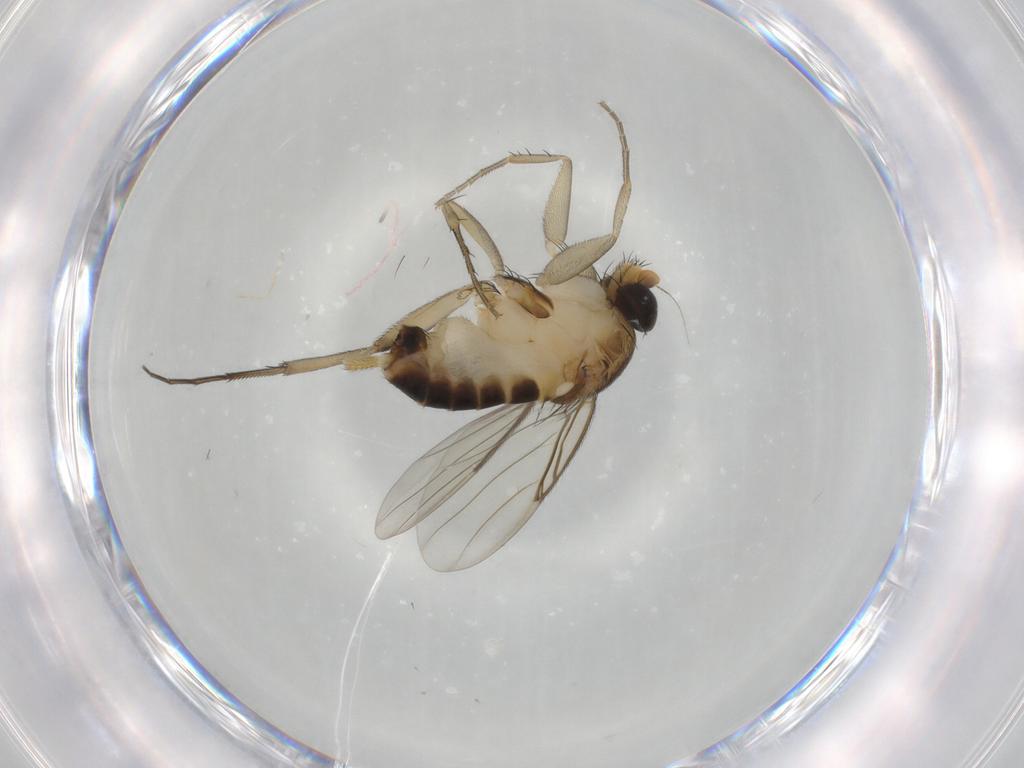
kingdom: Animalia
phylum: Arthropoda
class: Insecta
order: Diptera
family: Phoridae
